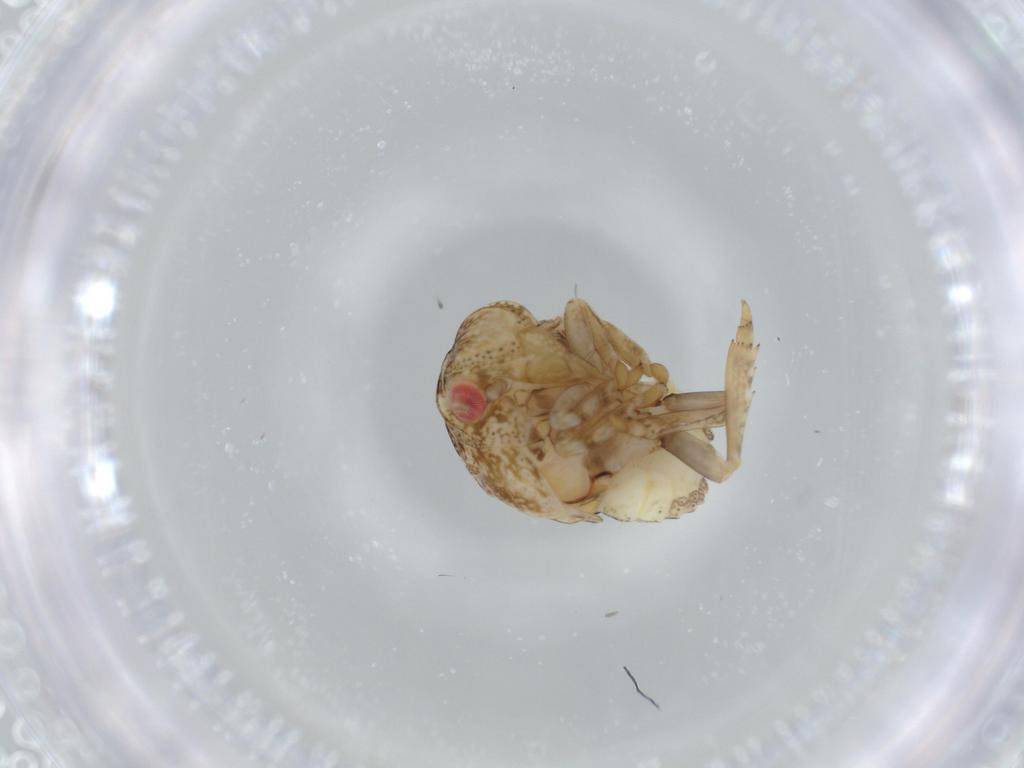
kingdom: Animalia
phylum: Arthropoda
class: Insecta
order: Hemiptera
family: Acanaloniidae
